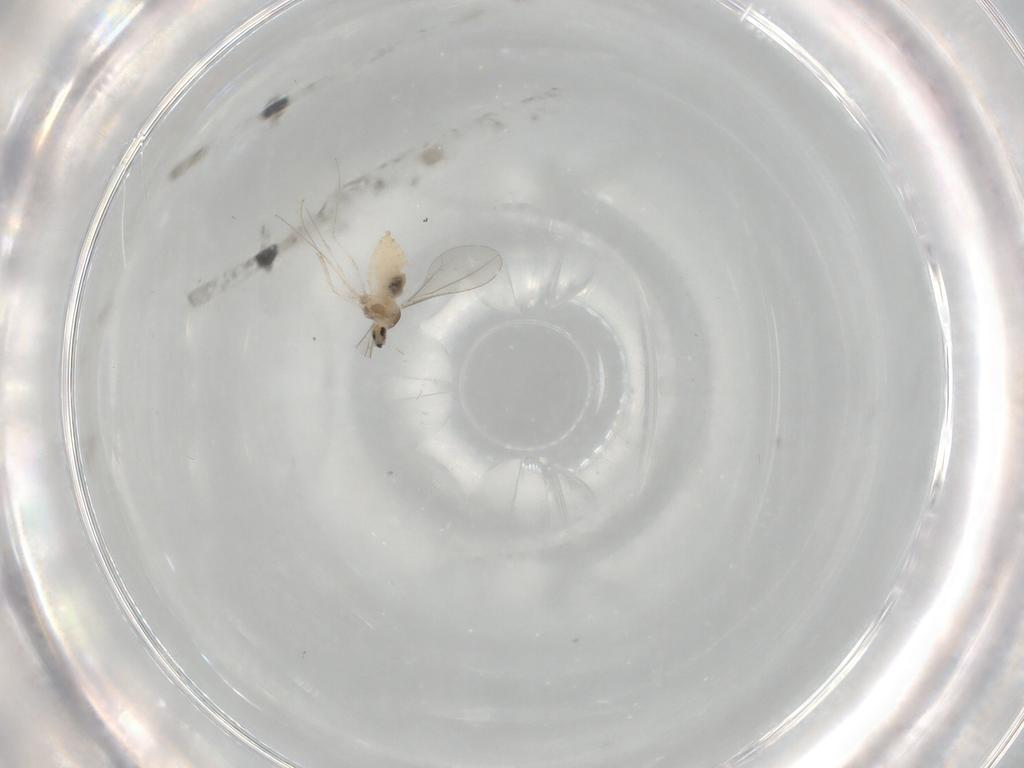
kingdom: Animalia
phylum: Arthropoda
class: Insecta
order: Diptera
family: Cecidomyiidae
